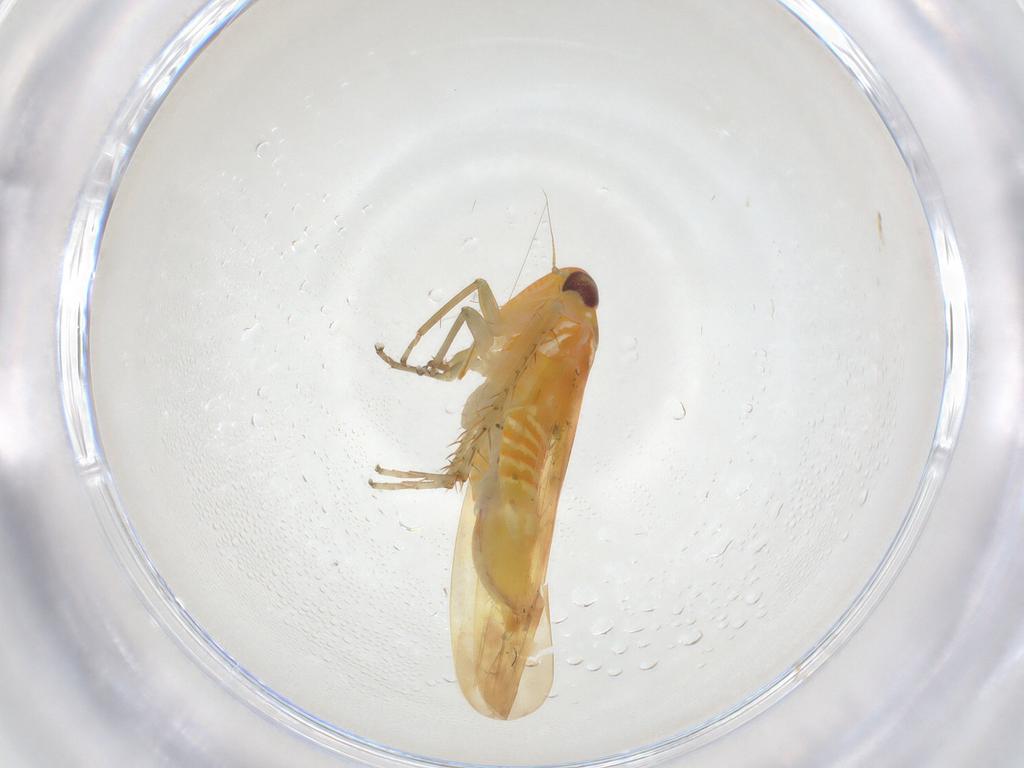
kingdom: Animalia
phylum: Arthropoda
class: Insecta
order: Hemiptera
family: Cicadellidae
